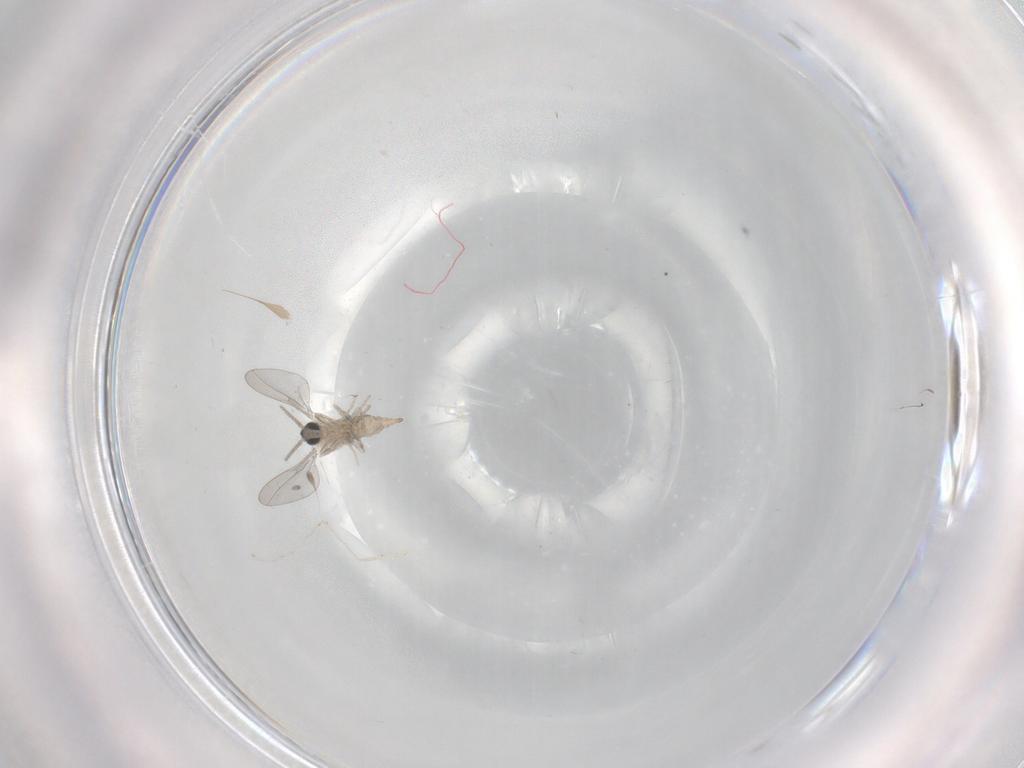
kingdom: Animalia
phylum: Arthropoda
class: Insecta
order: Diptera
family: Cecidomyiidae
